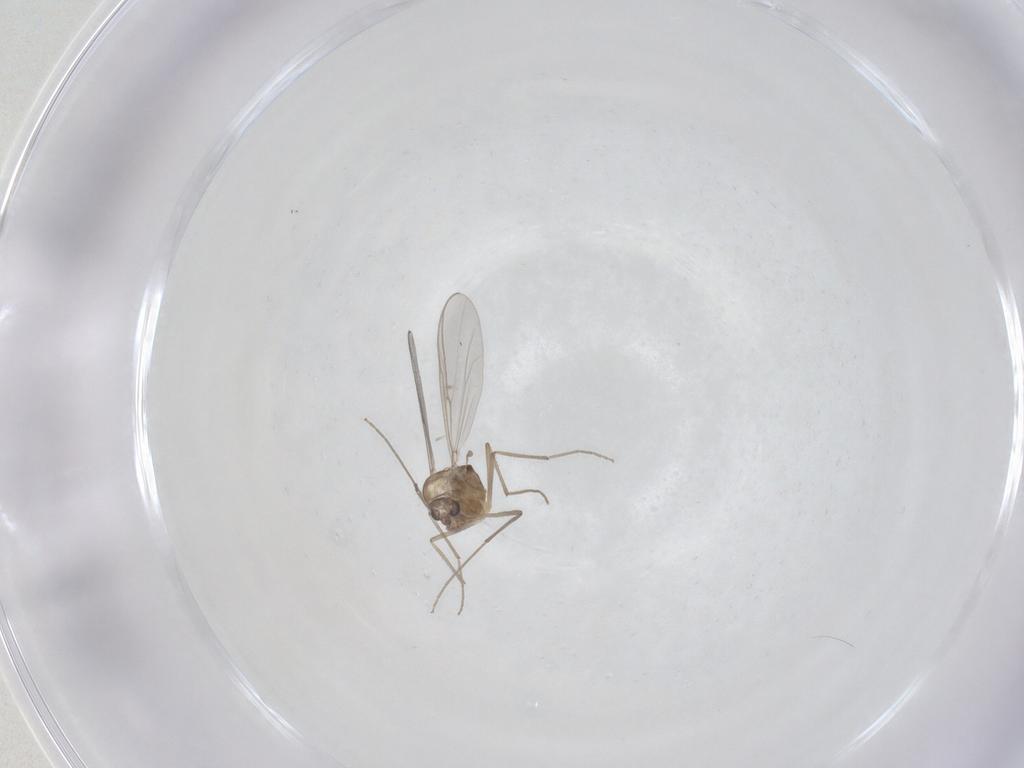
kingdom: Animalia
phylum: Arthropoda
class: Insecta
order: Diptera
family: Chironomidae
